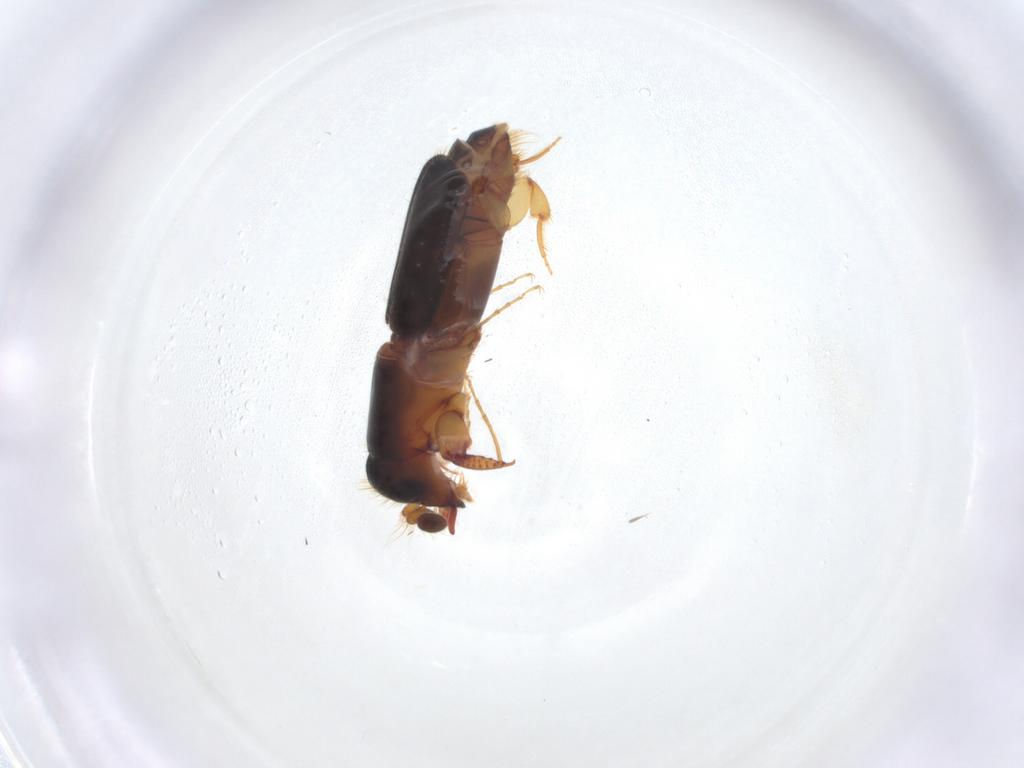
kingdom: Animalia
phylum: Arthropoda
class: Insecta
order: Coleoptera
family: Curculionidae
